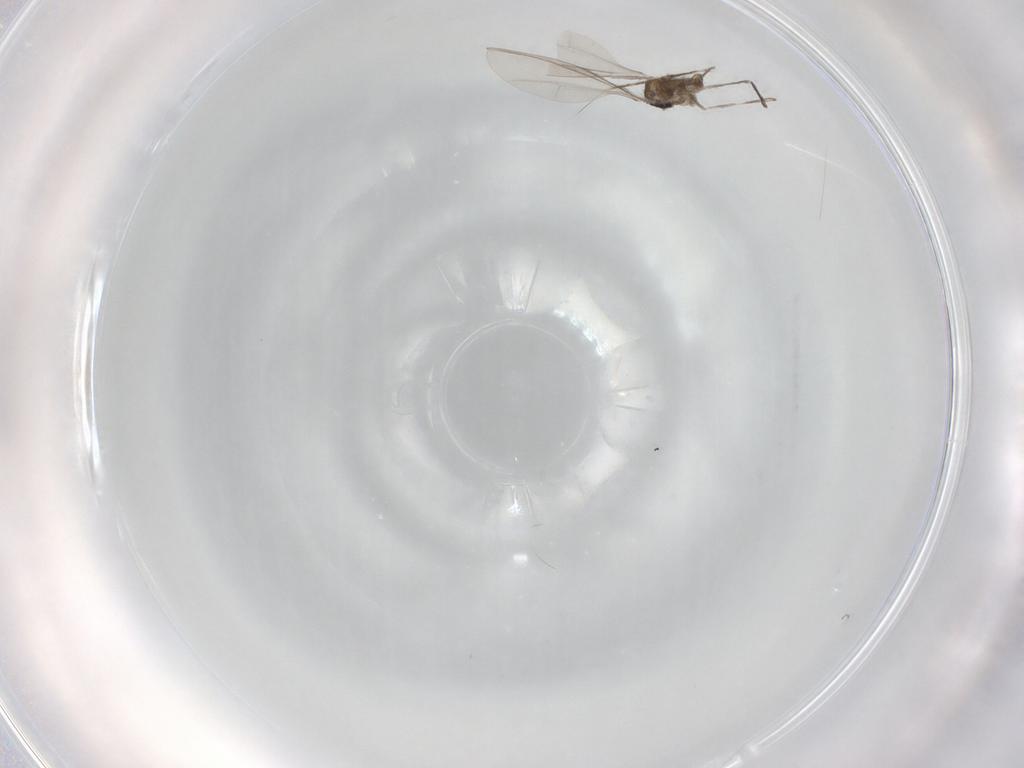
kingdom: Animalia
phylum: Arthropoda
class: Insecta
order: Diptera
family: Cecidomyiidae
